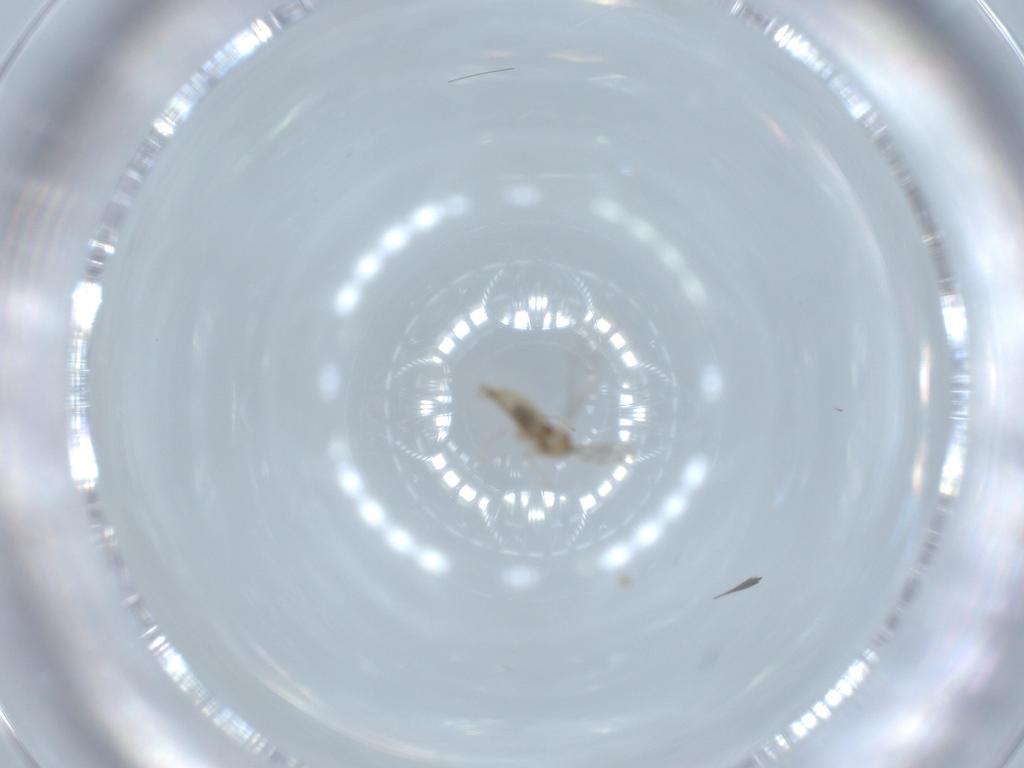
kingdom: Animalia
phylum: Arthropoda
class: Insecta
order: Diptera
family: Cecidomyiidae
